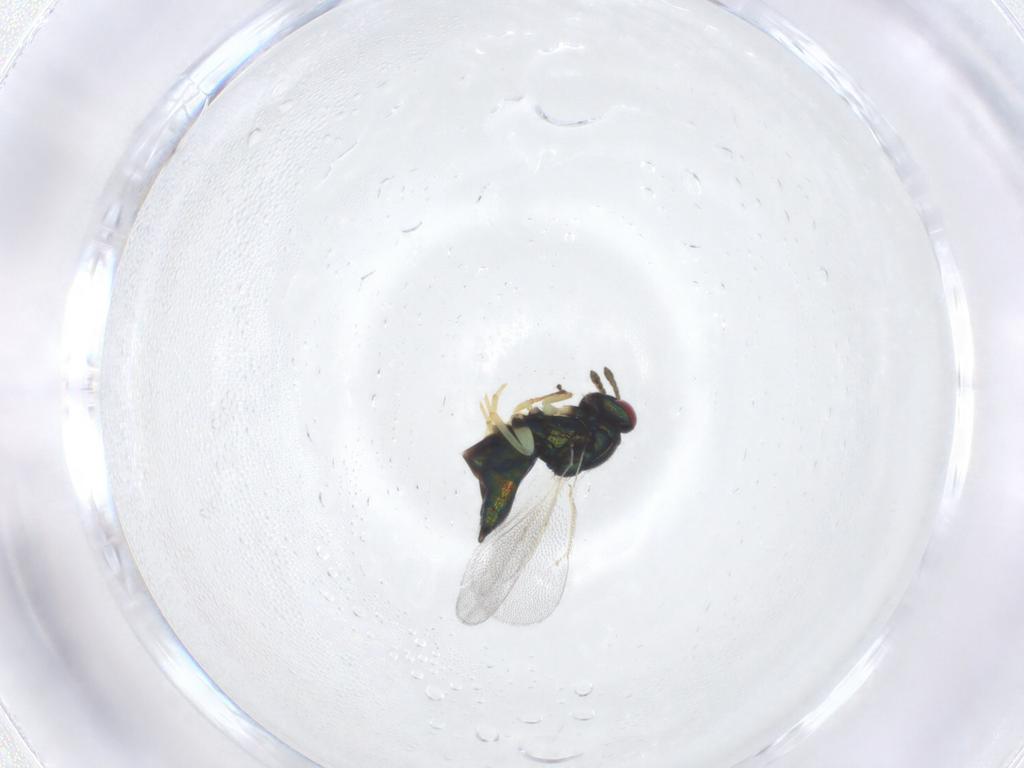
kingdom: Animalia
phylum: Arthropoda
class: Insecta
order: Hymenoptera
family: Eulophidae
